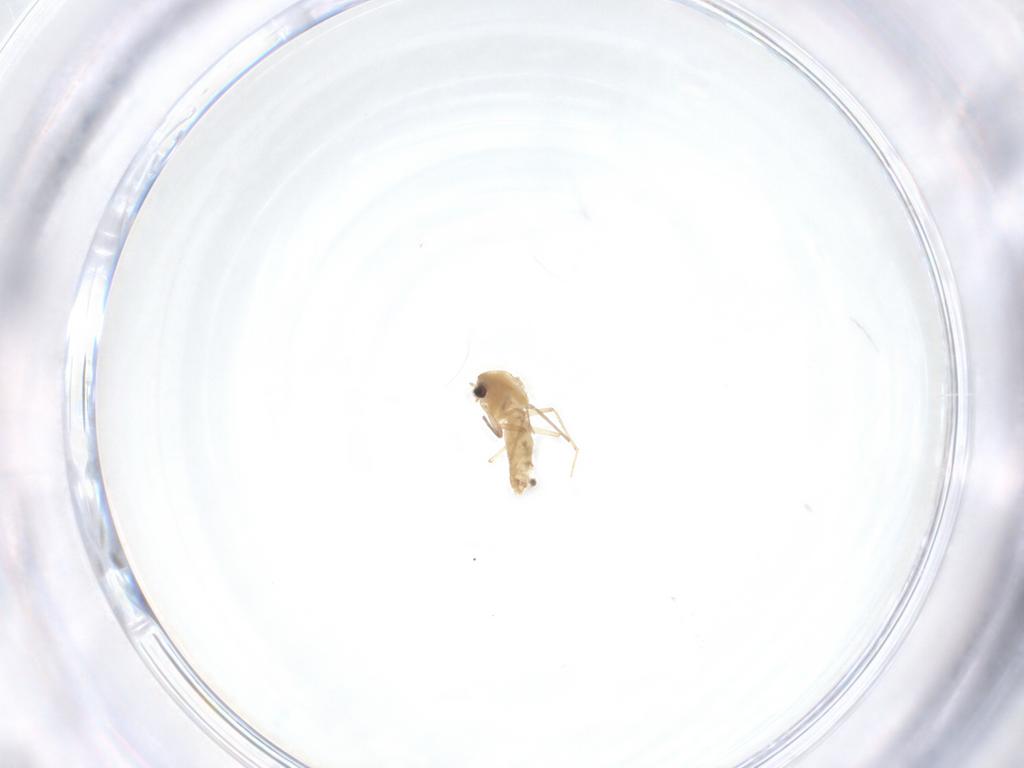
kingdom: Animalia
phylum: Arthropoda
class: Insecta
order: Diptera
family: Chironomidae
